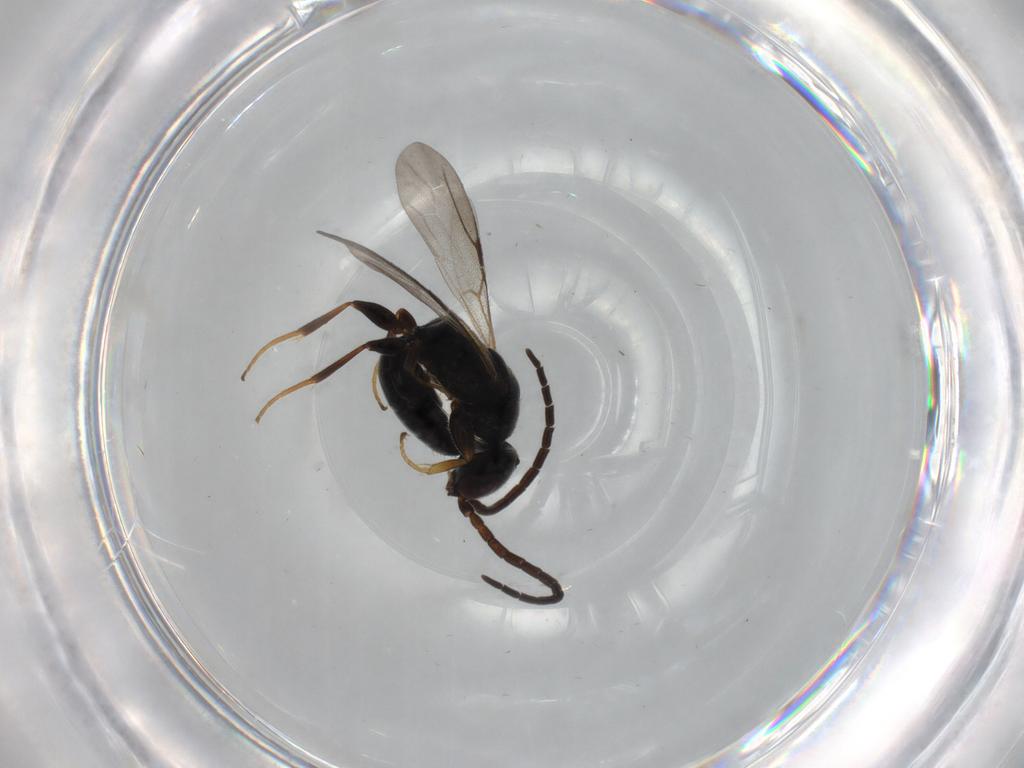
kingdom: Animalia
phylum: Arthropoda
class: Insecta
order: Hymenoptera
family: Bethylidae
